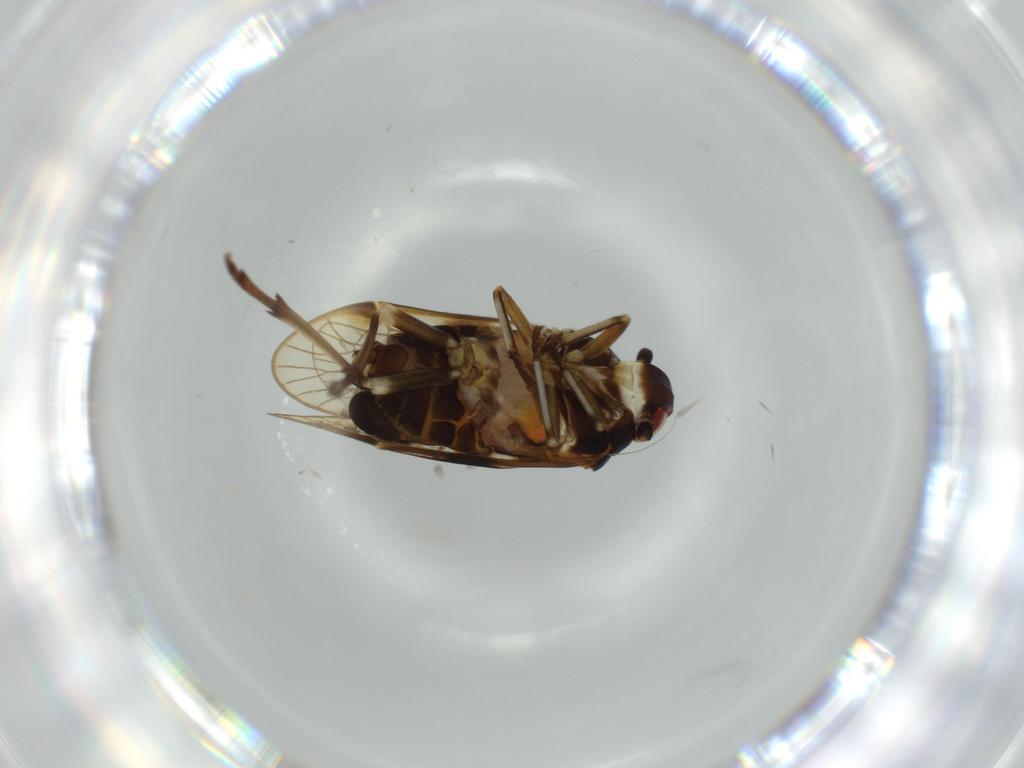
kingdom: Animalia
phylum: Arthropoda
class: Insecta
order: Hemiptera
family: Kinnaridae
